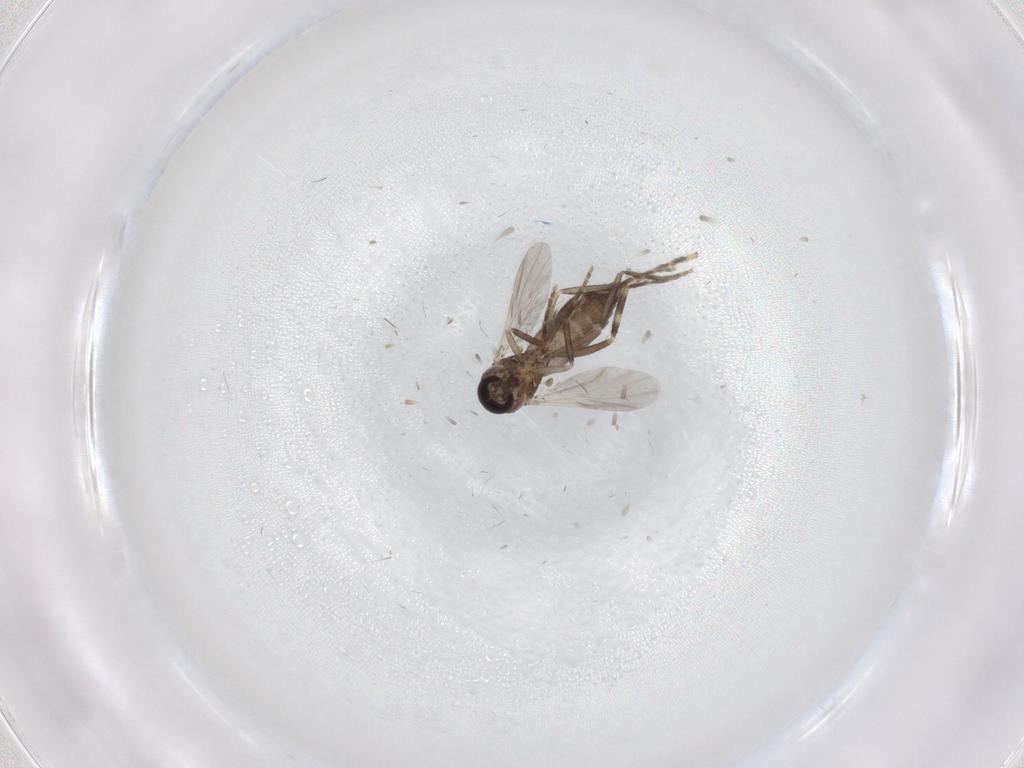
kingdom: Animalia
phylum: Arthropoda
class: Insecta
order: Diptera
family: Ceratopogonidae
